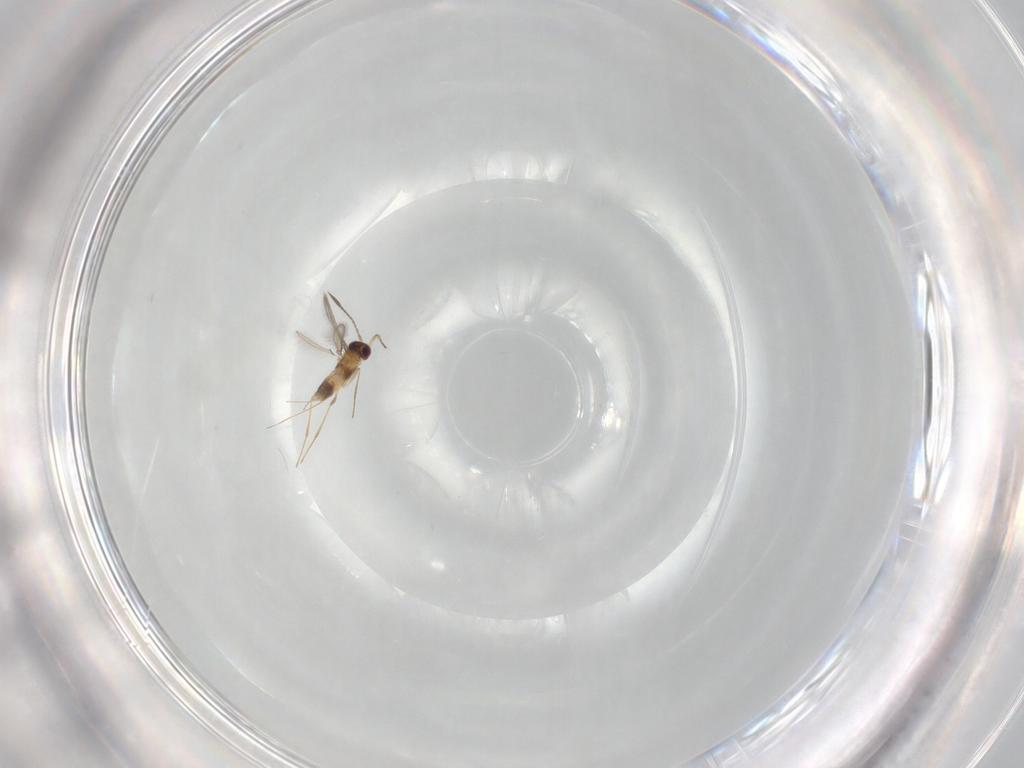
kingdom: Animalia
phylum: Arthropoda
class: Insecta
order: Hymenoptera
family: Mymaridae
